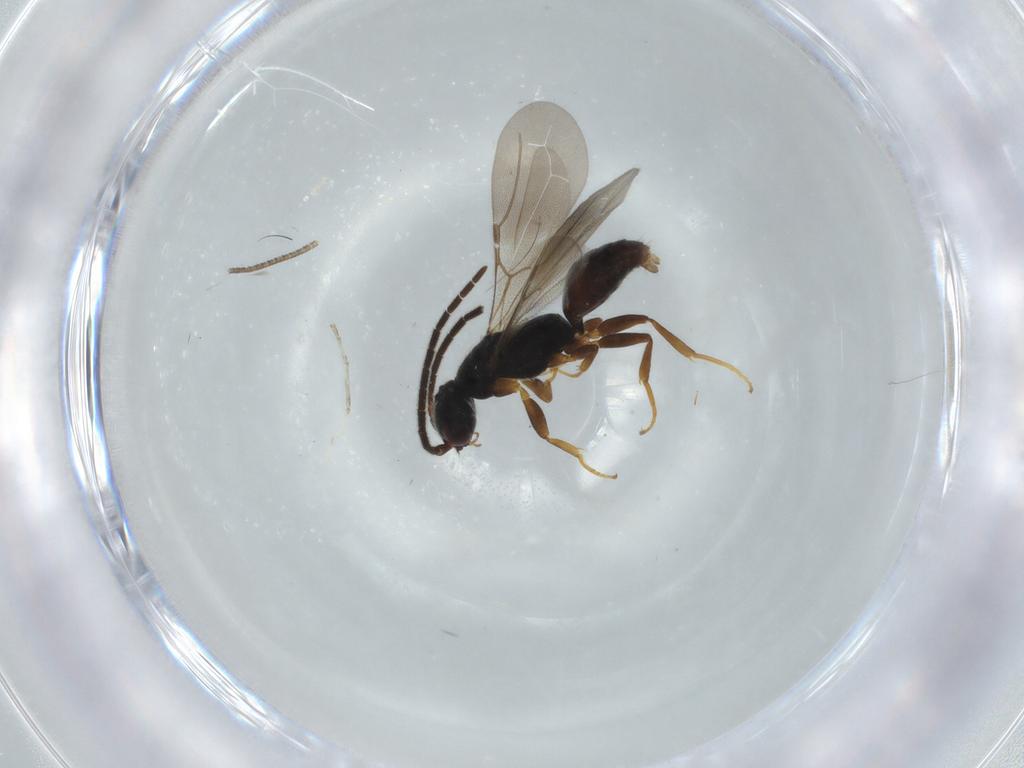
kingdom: Animalia
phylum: Arthropoda
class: Insecta
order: Hymenoptera
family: Bethylidae
